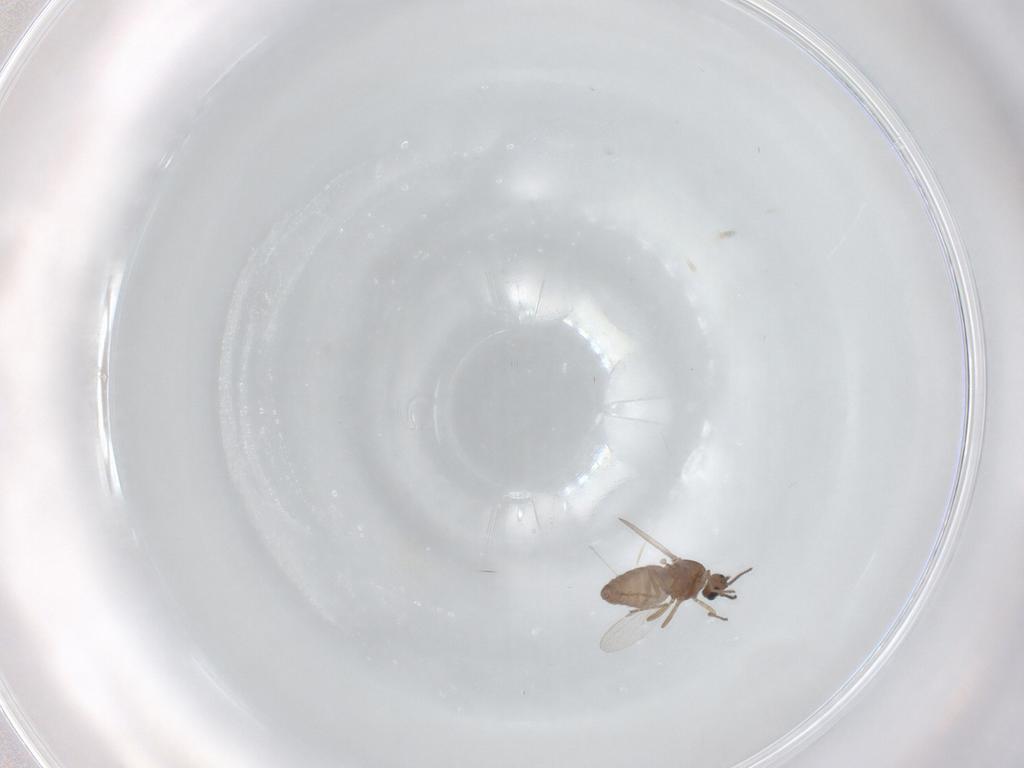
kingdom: Animalia
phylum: Arthropoda
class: Insecta
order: Diptera
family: Ceratopogonidae
